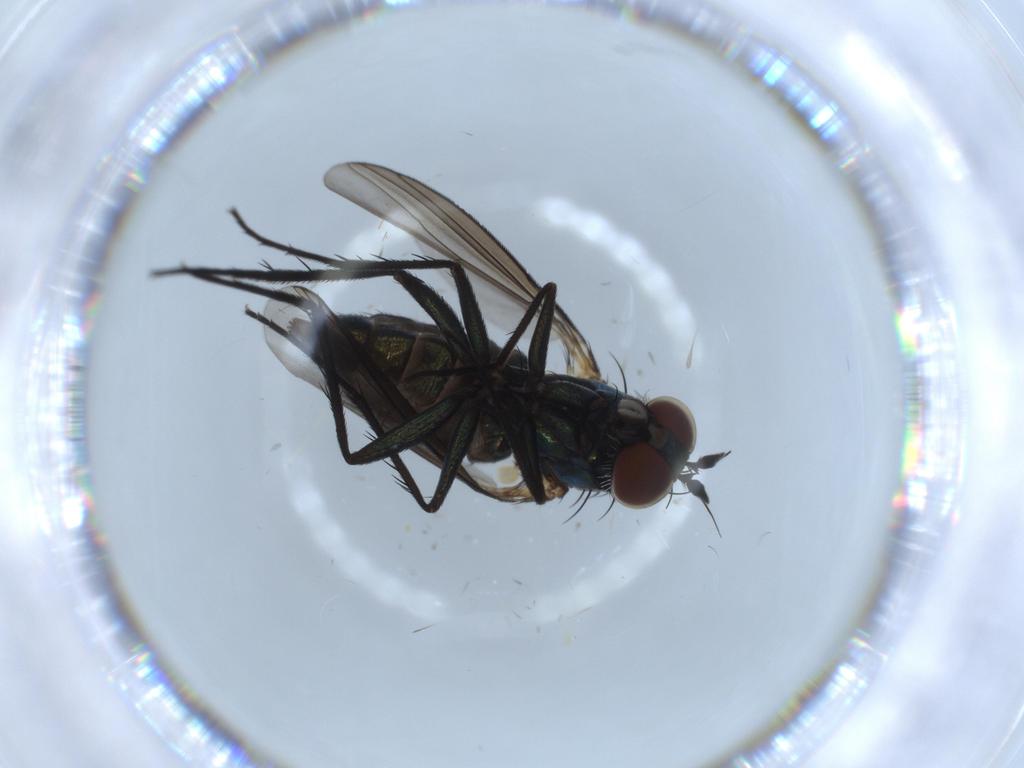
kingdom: Animalia
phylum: Arthropoda
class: Insecta
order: Diptera
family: Dolichopodidae
